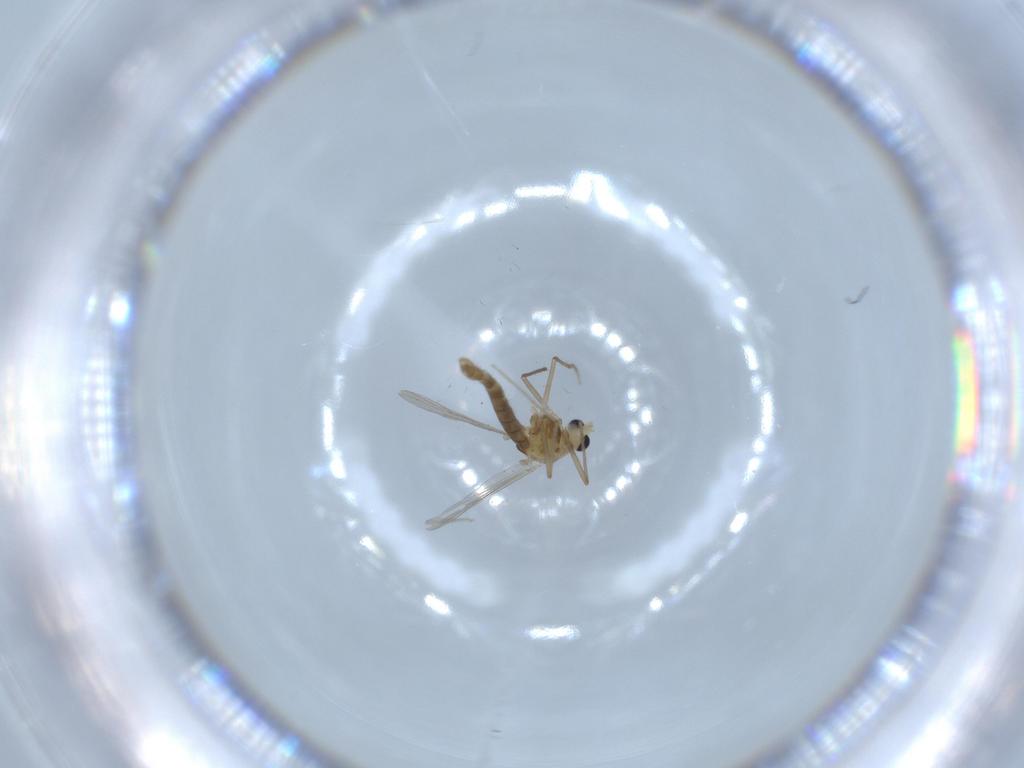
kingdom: Animalia
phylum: Arthropoda
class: Insecta
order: Diptera
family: Chironomidae
